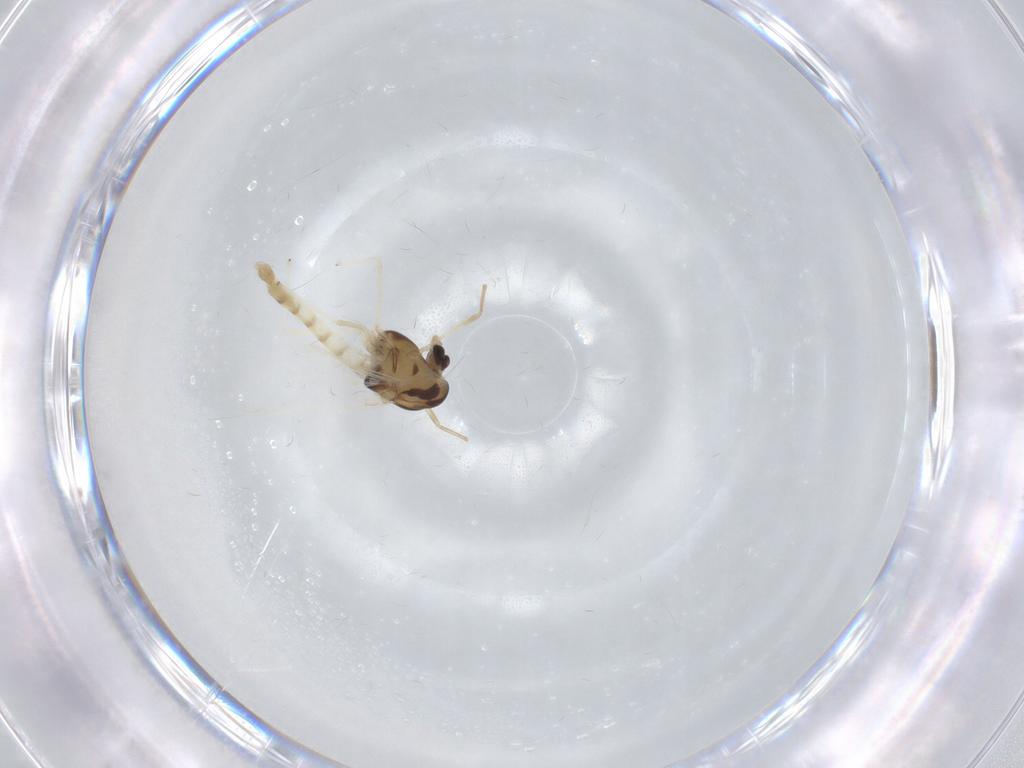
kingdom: Animalia
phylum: Arthropoda
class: Insecta
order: Diptera
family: Chironomidae
